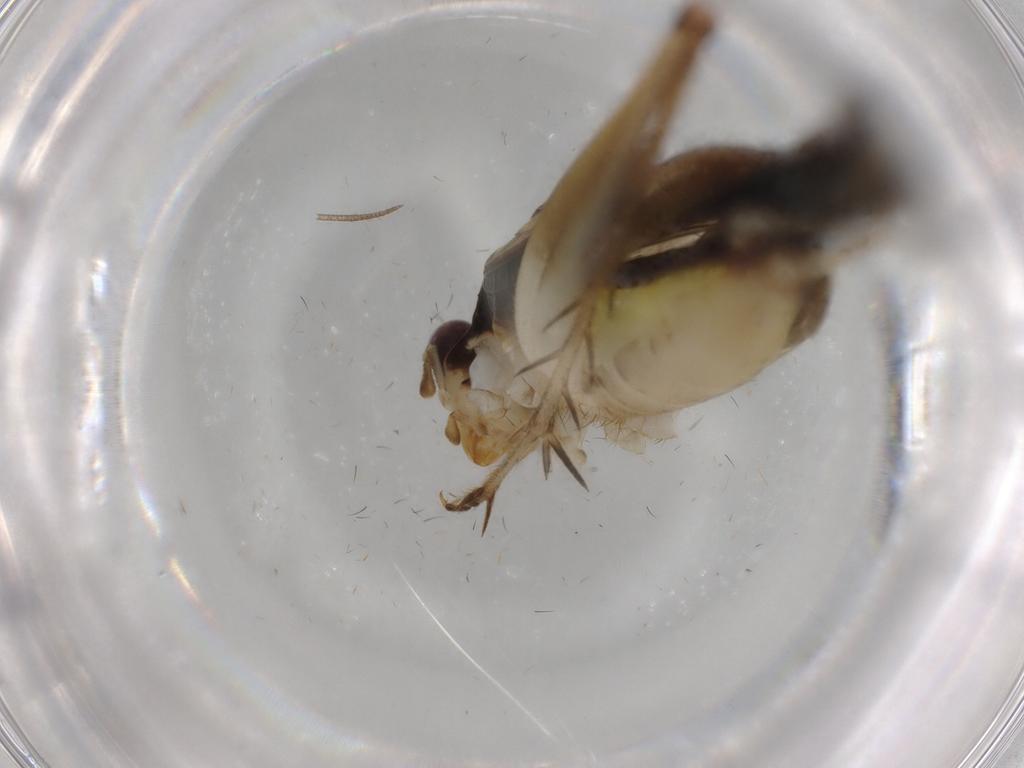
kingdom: Animalia
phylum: Arthropoda
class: Insecta
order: Orthoptera
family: Trigonidiidae
